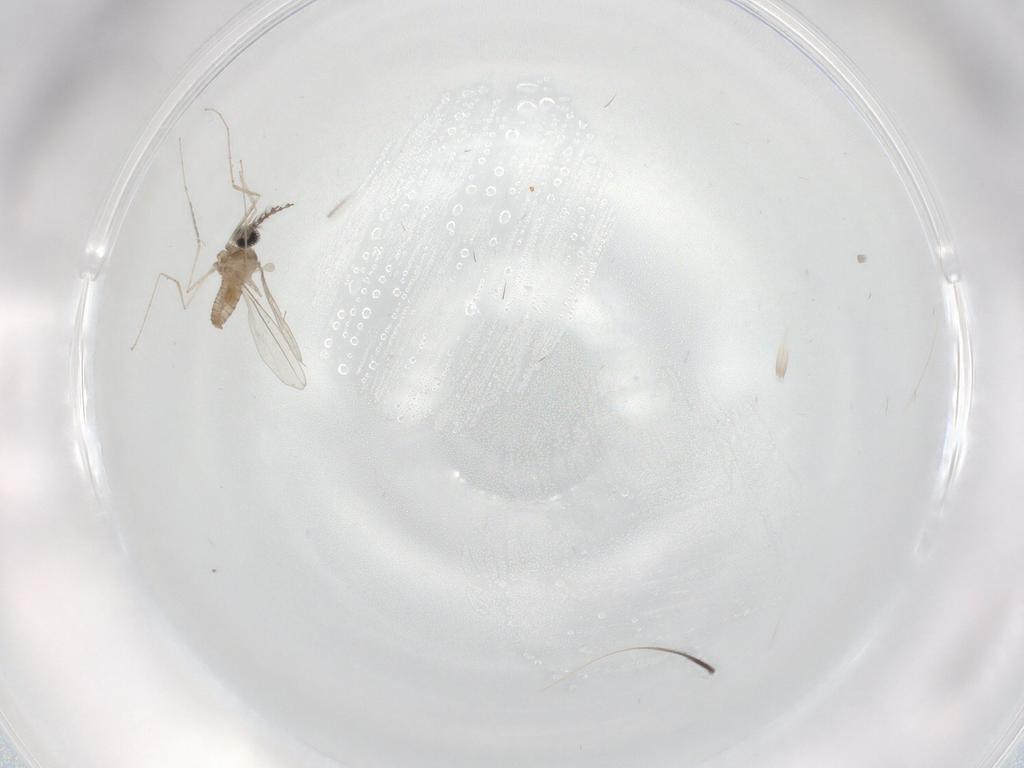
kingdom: Animalia
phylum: Arthropoda
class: Insecta
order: Diptera
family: Cecidomyiidae
